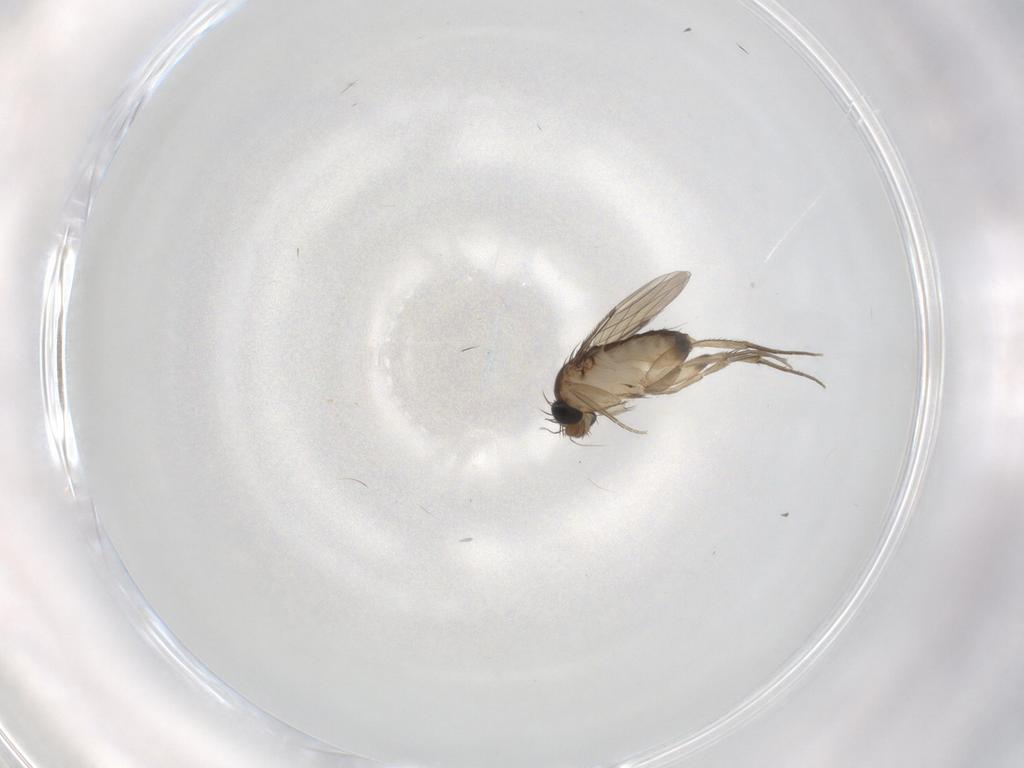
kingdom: Animalia
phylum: Arthropoda
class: Insecta
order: Diptera
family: Phoridae
